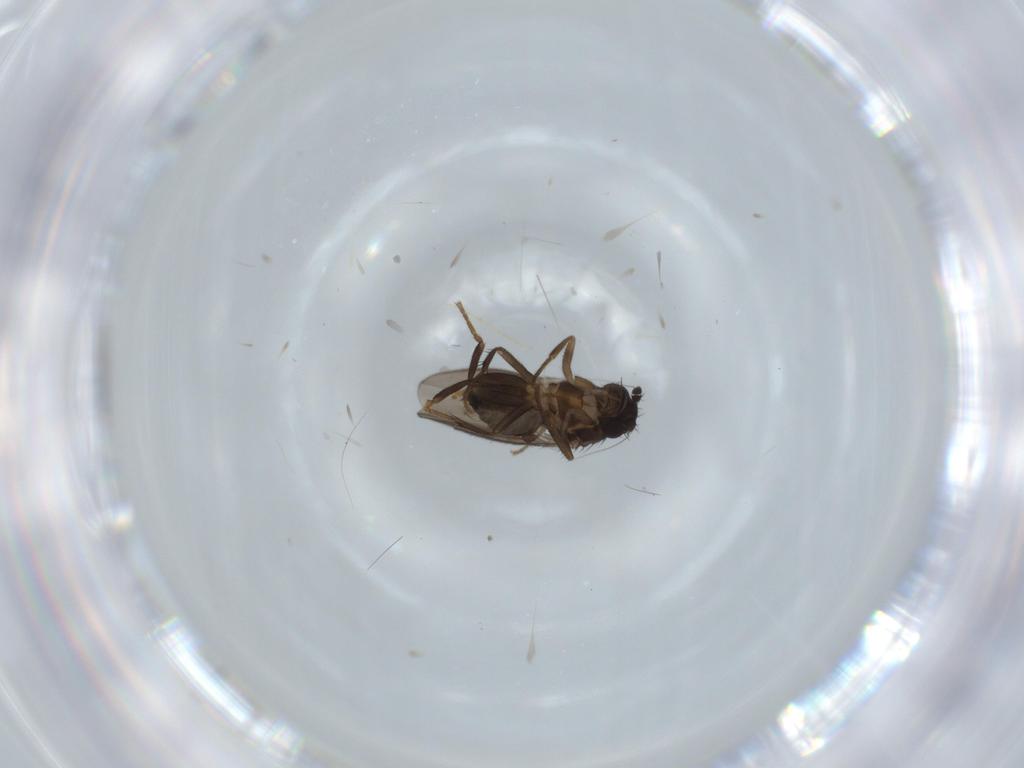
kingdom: Animalia
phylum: Arthropoda
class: Insecta
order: Diptera
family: Sphaeroceridae
